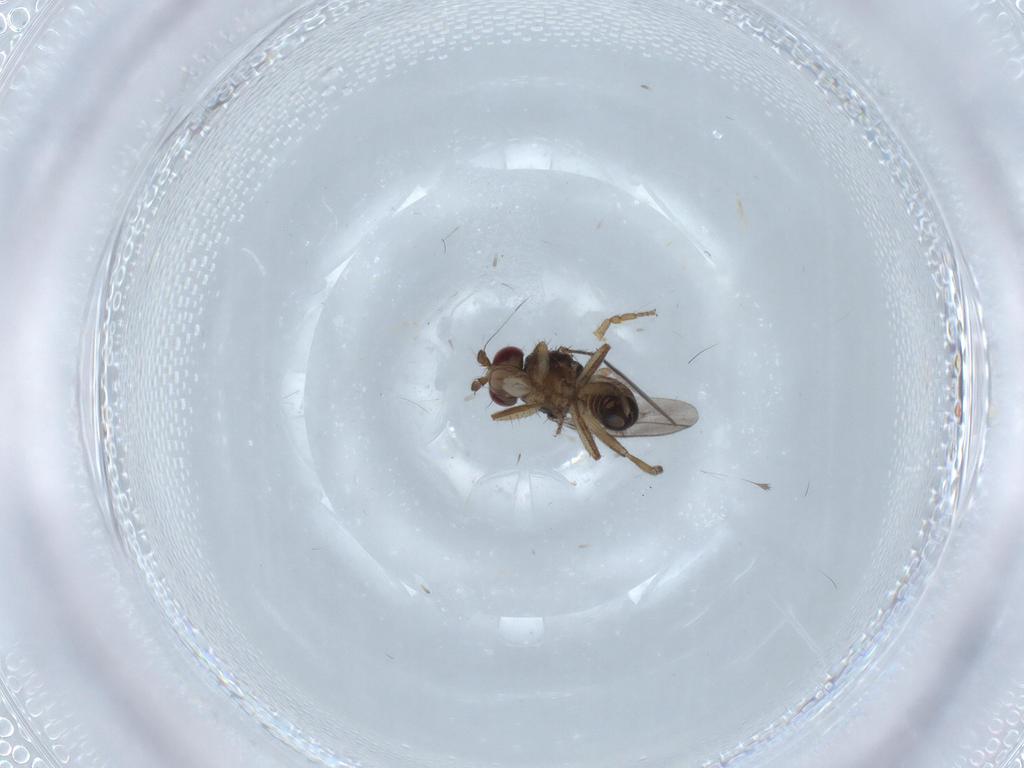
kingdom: Animalia
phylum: Arthropoda
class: Insecta
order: Diptera
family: Sphaeroceridae
